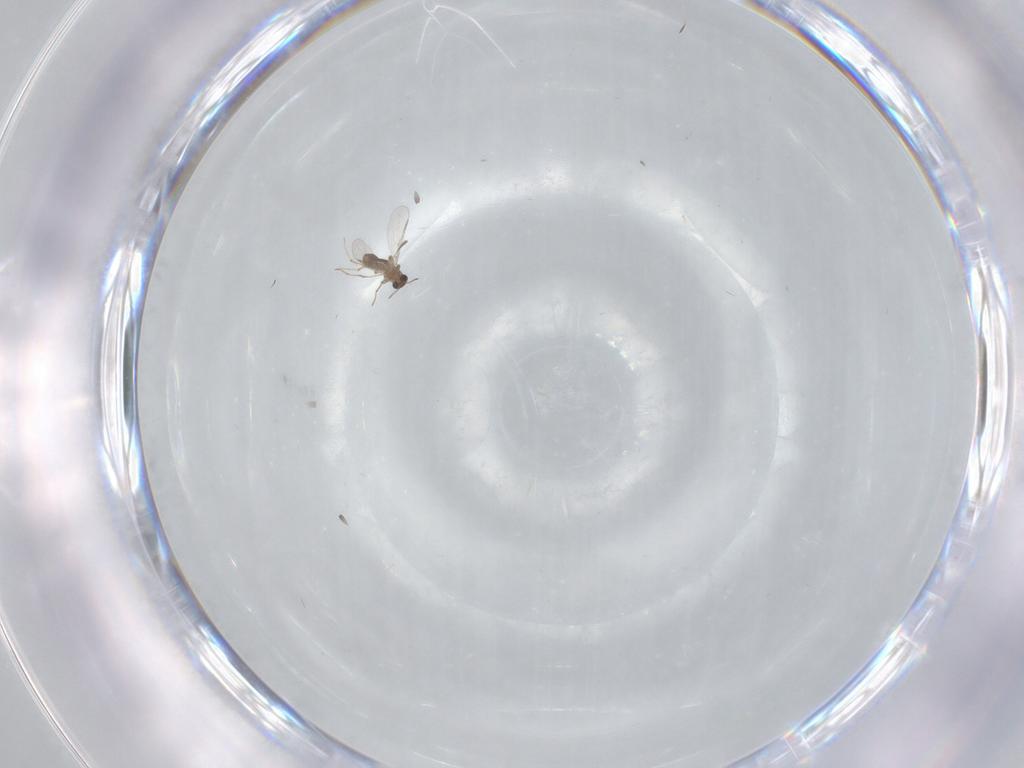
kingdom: Animalia
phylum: Arthropoda
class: Insecta
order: Diptera
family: Chironomidae
